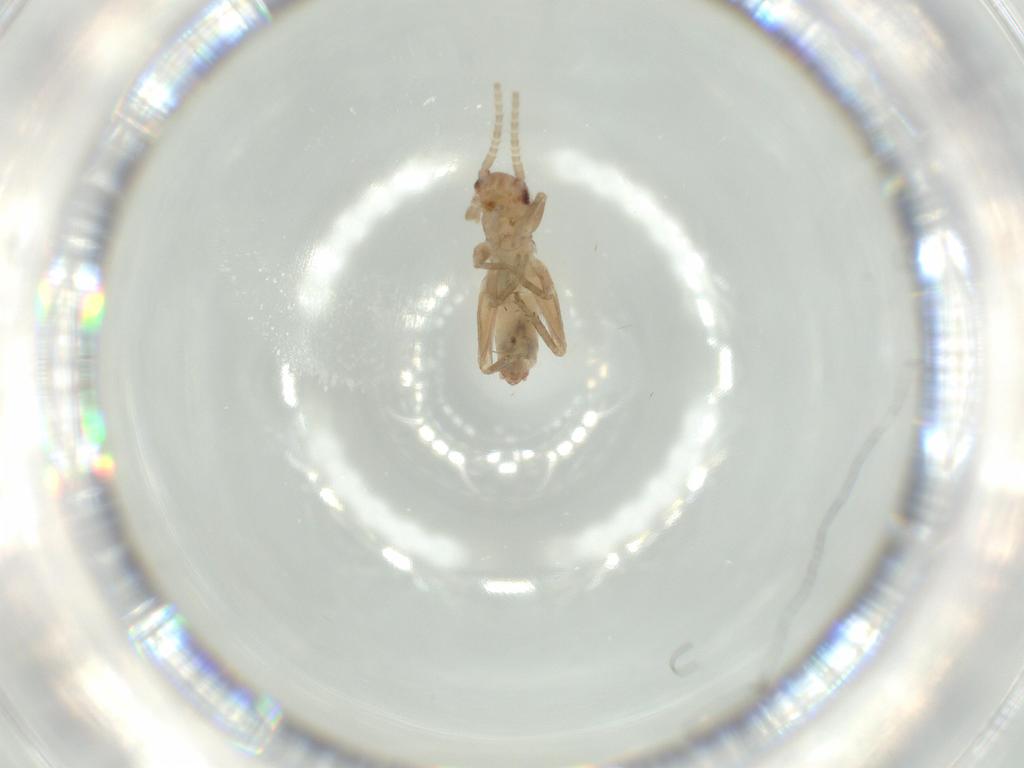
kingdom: Animalia
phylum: Arthropoda
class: Insecta
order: Orthoptera
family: Mogoplistidae
